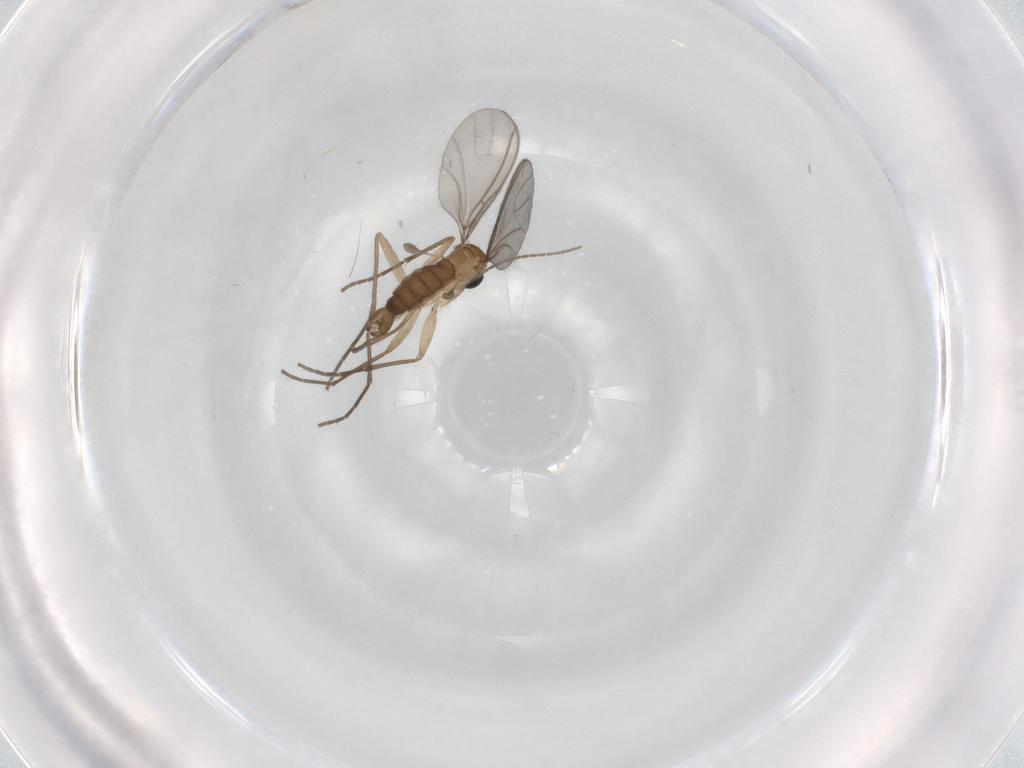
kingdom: Animalia
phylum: Arthropoda
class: Insecta
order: Diptera
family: Sciaridae
